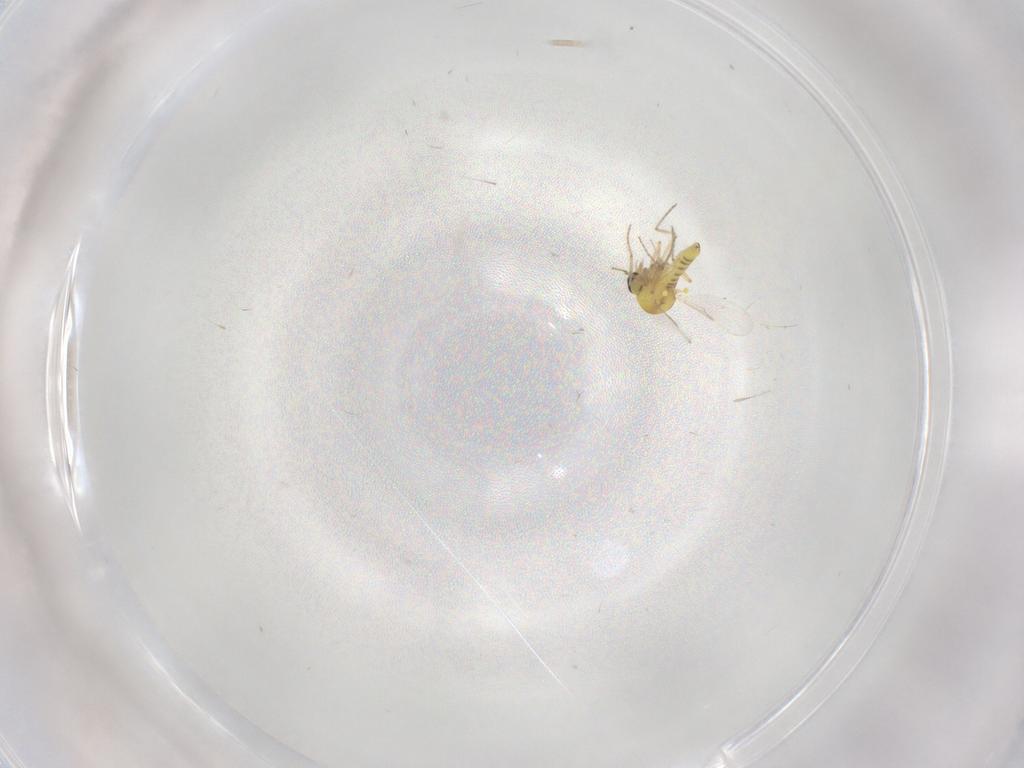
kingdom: Animalia
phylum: Arthropoda
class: Insecta
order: Diptera
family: Ceratopogonidae
